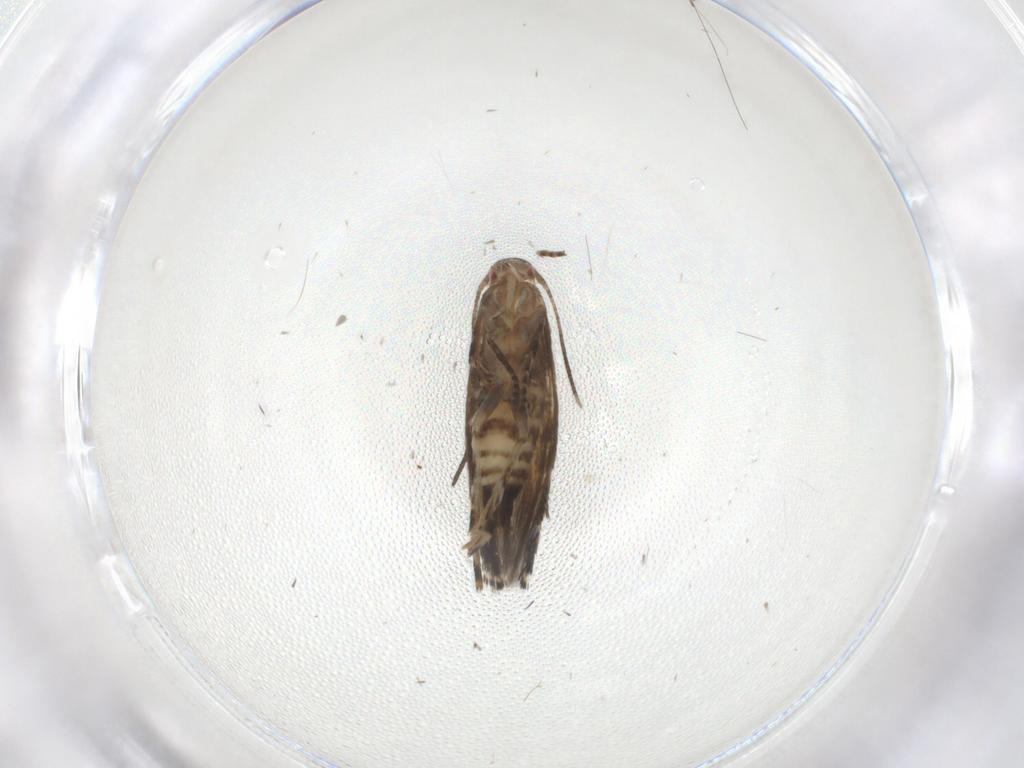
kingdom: Animalia
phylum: Arthropoda
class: Insecta
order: Lepidoptera
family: Momphidae
